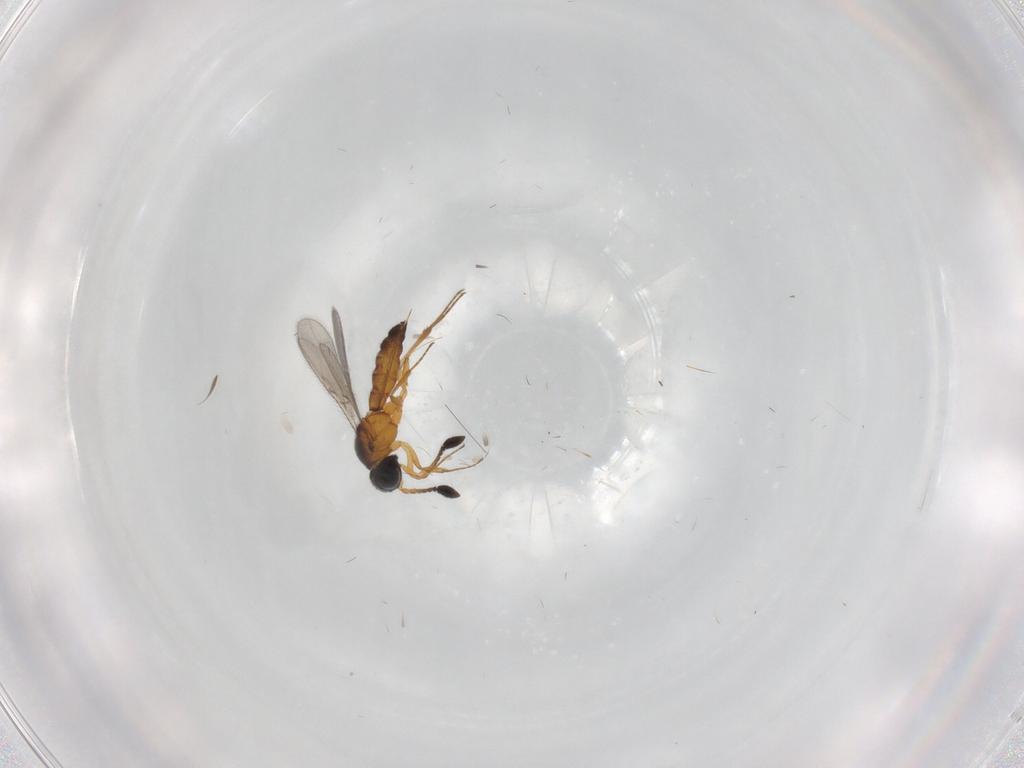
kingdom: Animalia
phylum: Arthropoda
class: Insecta
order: Hymenoptera
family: Scelionidae
